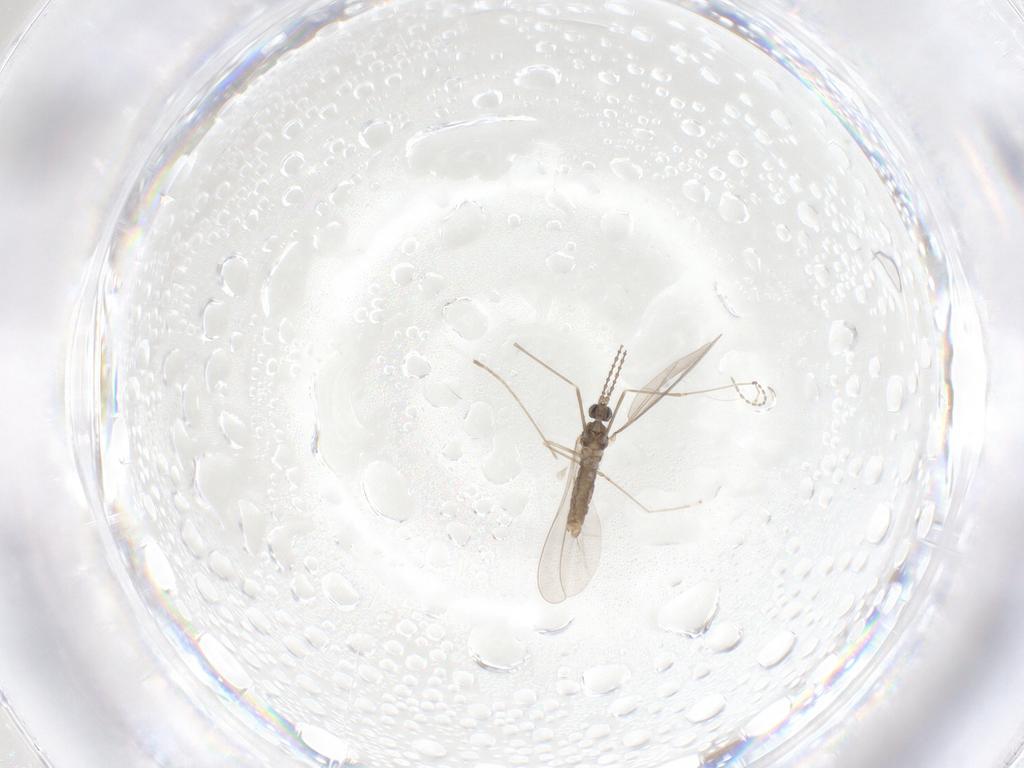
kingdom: Animalia
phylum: Arthropoda
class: Insecta
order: Diptera
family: Cecidomyiidae
